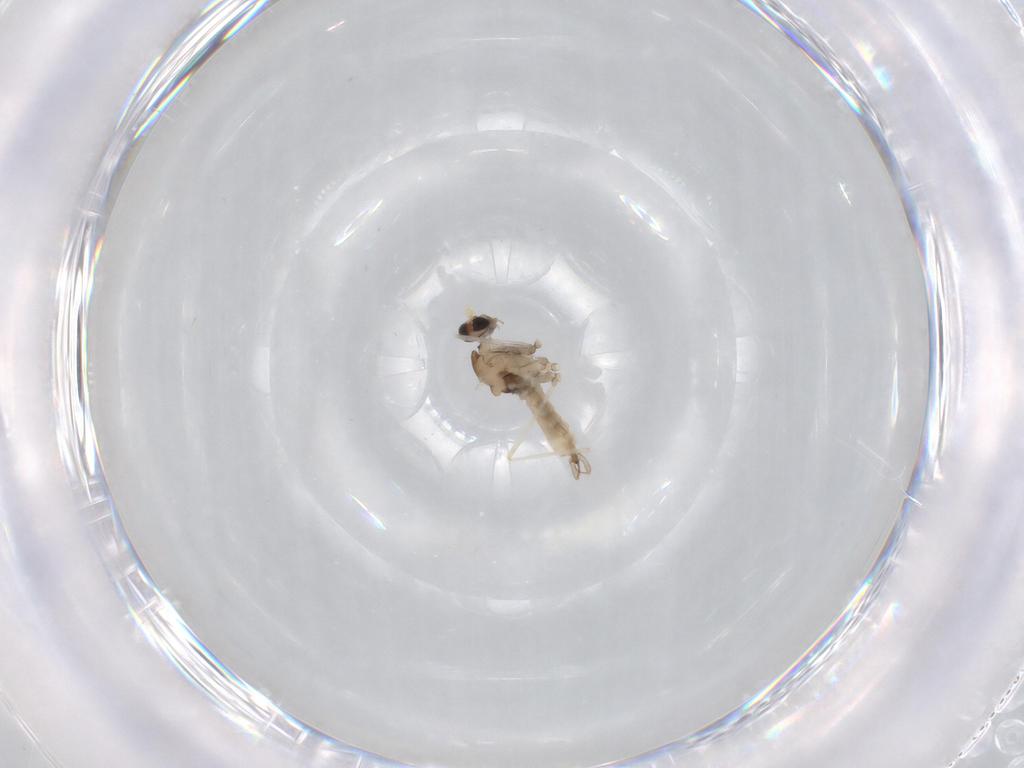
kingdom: Animalia
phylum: Arthropoda
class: Insecta
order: Diptera
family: Cecidomyiidae
